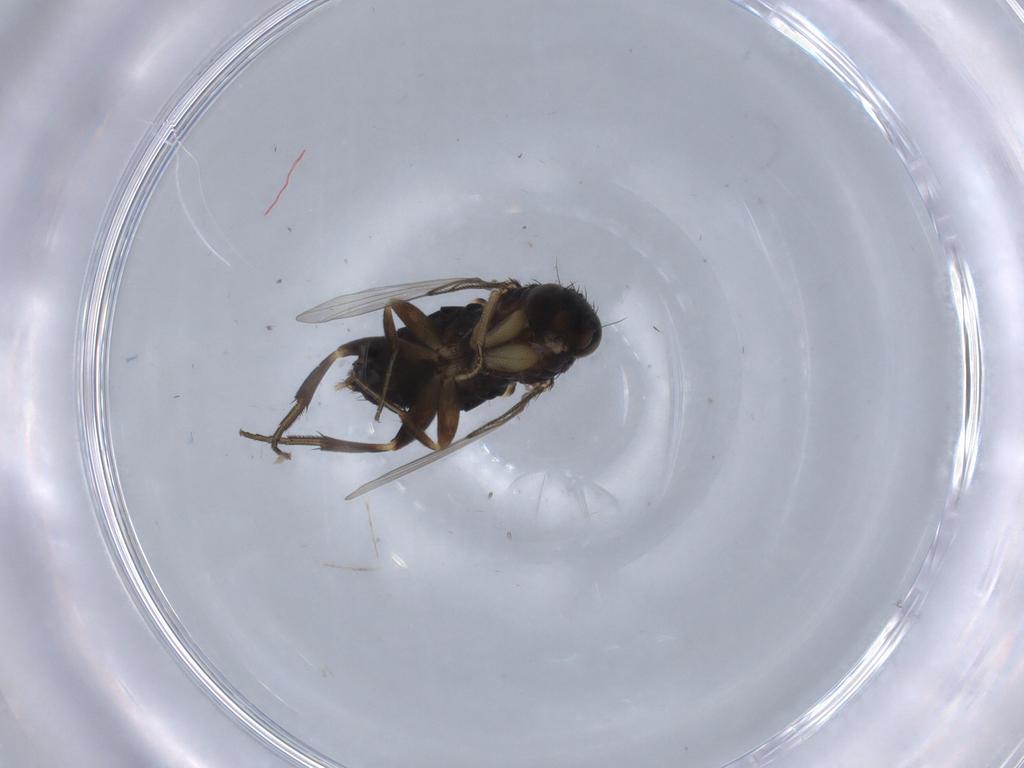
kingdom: Animalia
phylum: Arthropoda
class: Insecta
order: Diptera
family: Phoridae
